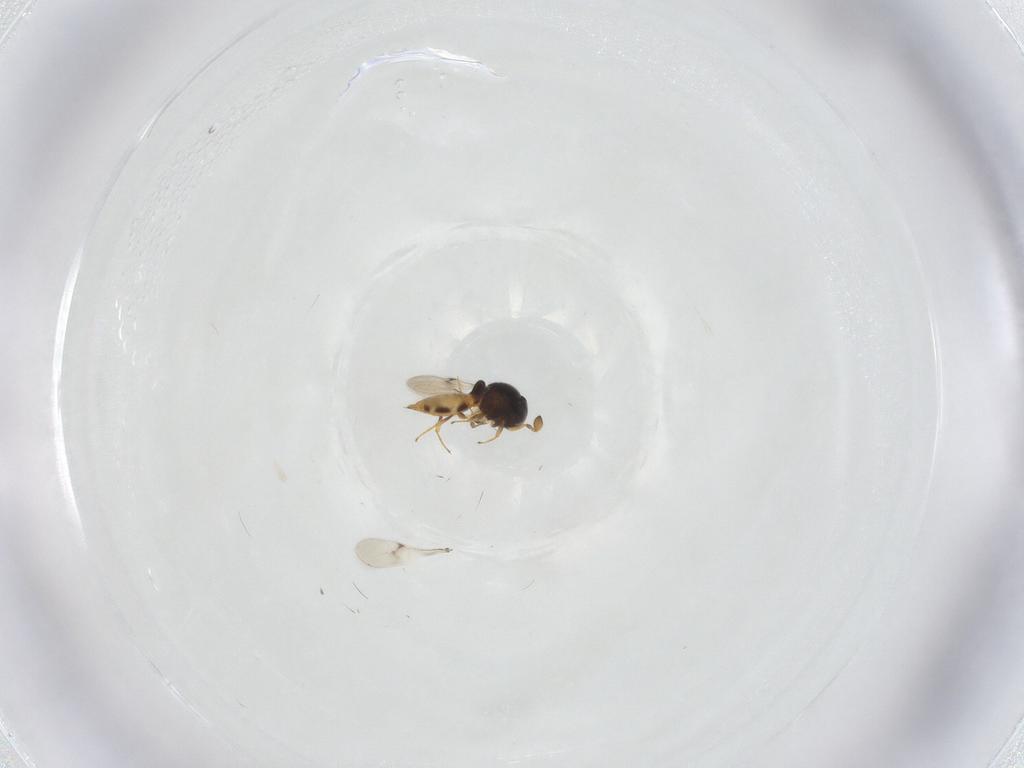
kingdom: Animalia
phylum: Arthropoda
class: Insecta
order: Hymenoptera
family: Scelionidae
